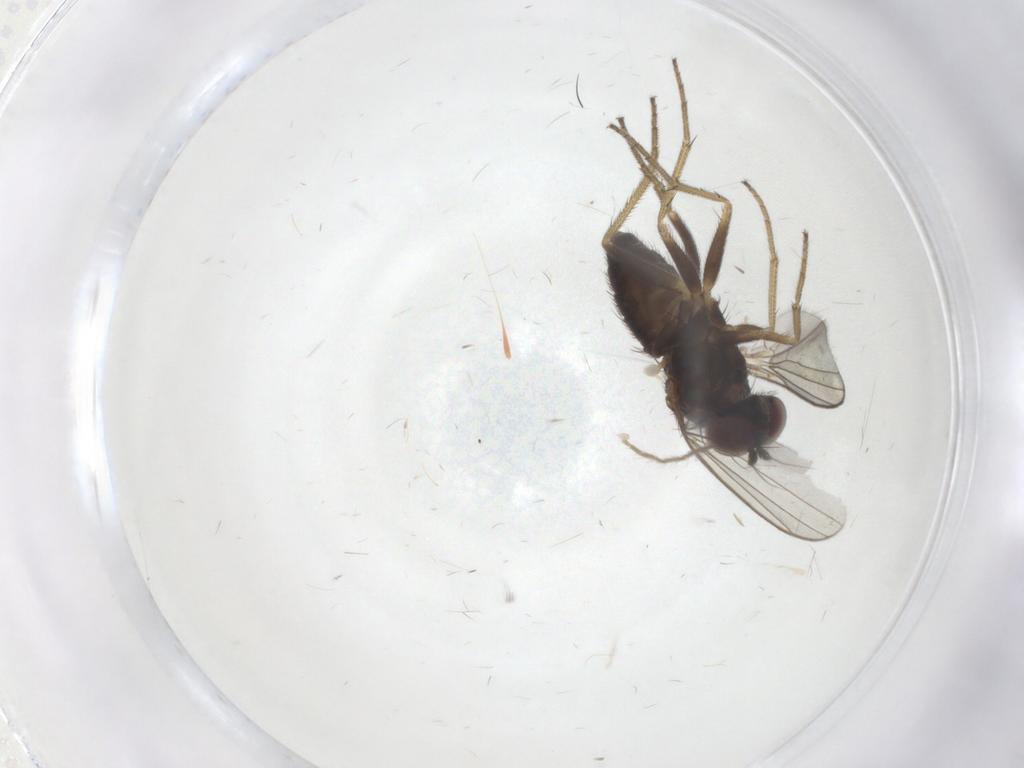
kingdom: Animalia
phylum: Arthropoda
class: Insecta
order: Diptera
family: Chironomidae
